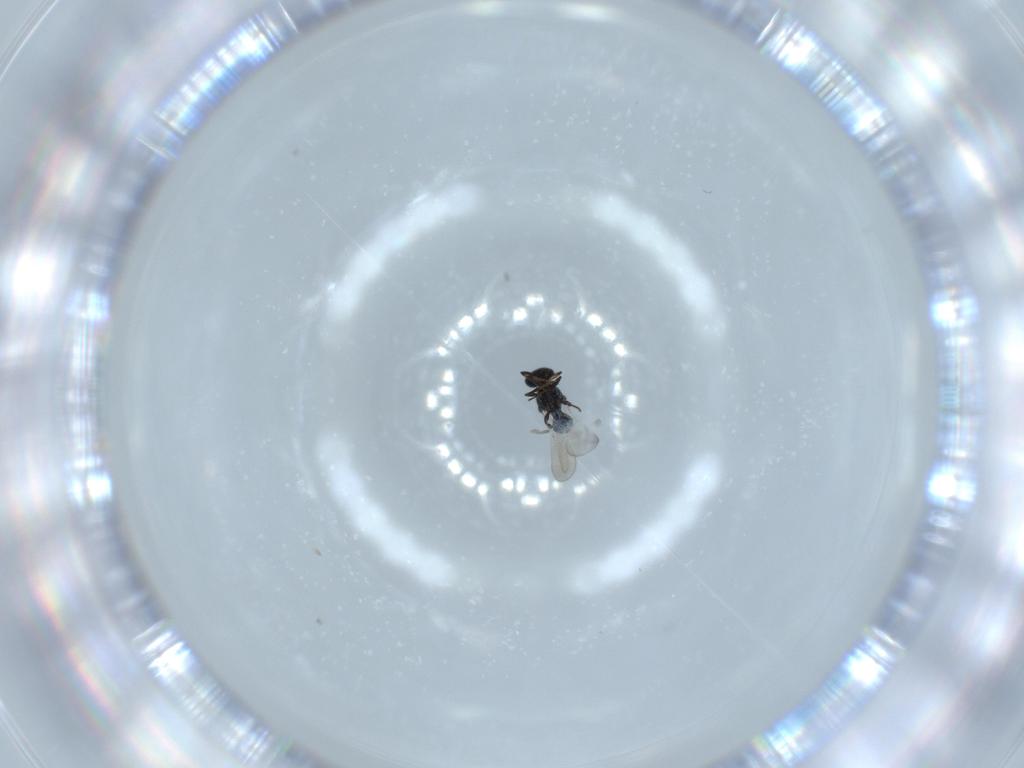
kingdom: Animalia
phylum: Arthropoda
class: Insecta
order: Hymenoptera
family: Platygastridae
